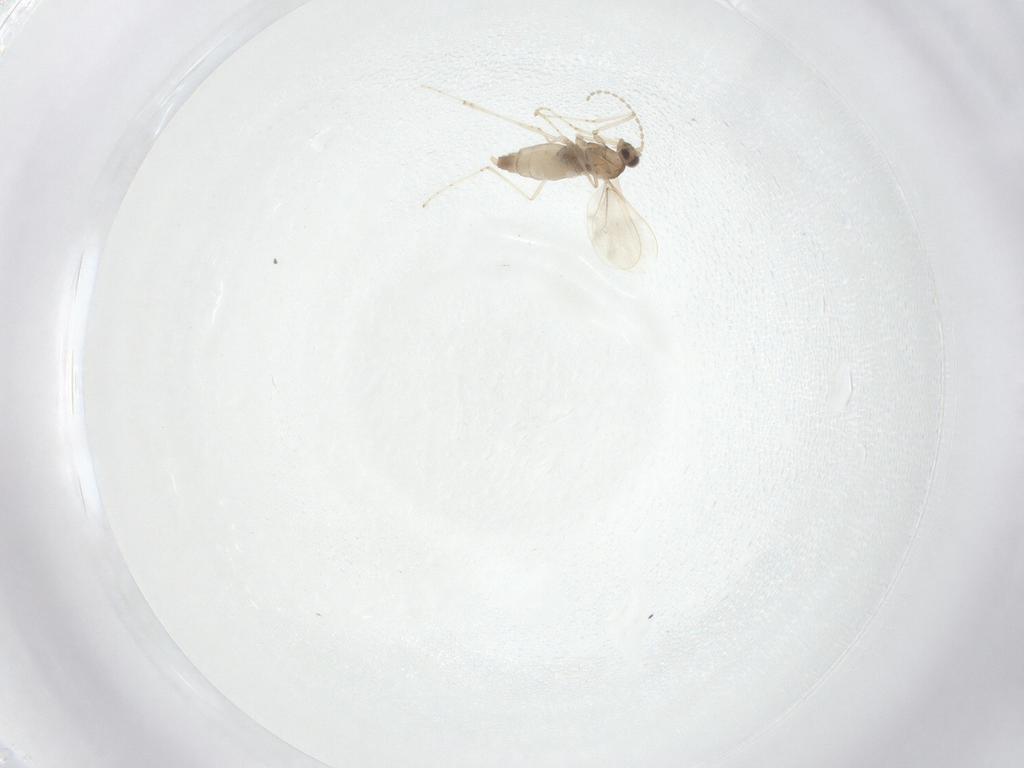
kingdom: Animalia
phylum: Arthropoda
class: Insecta
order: Diptera
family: Cecidomyiidae
